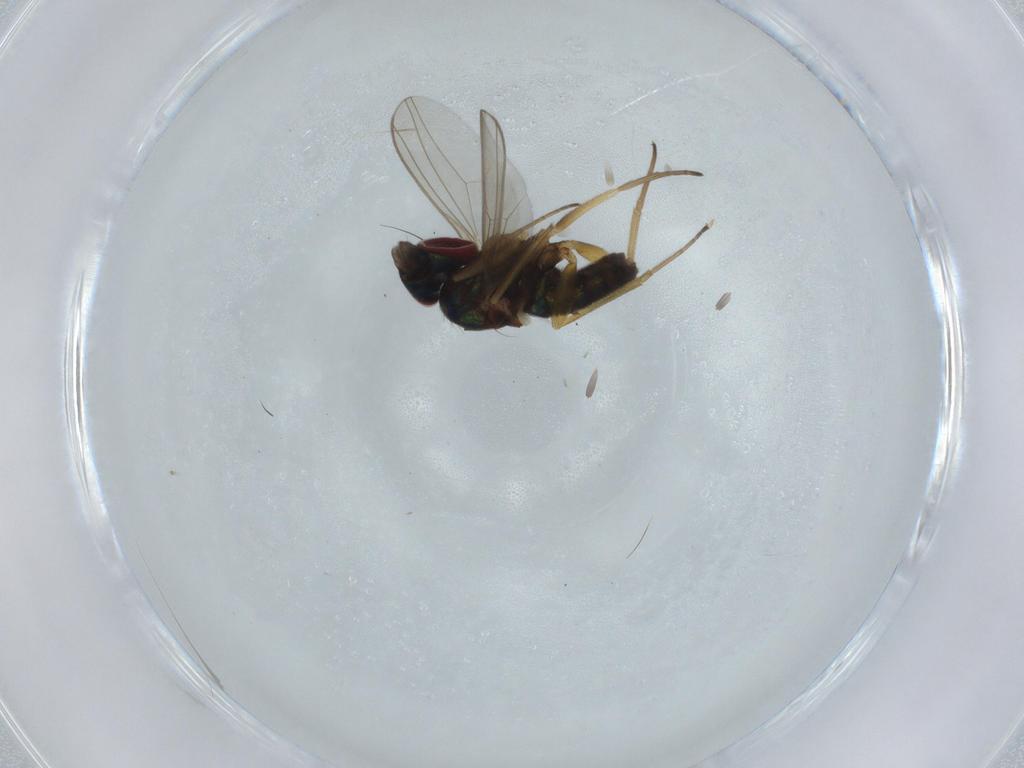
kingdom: Animalia
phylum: Arthropoda
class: Insecta
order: Diptera
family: Dolichopodidae
